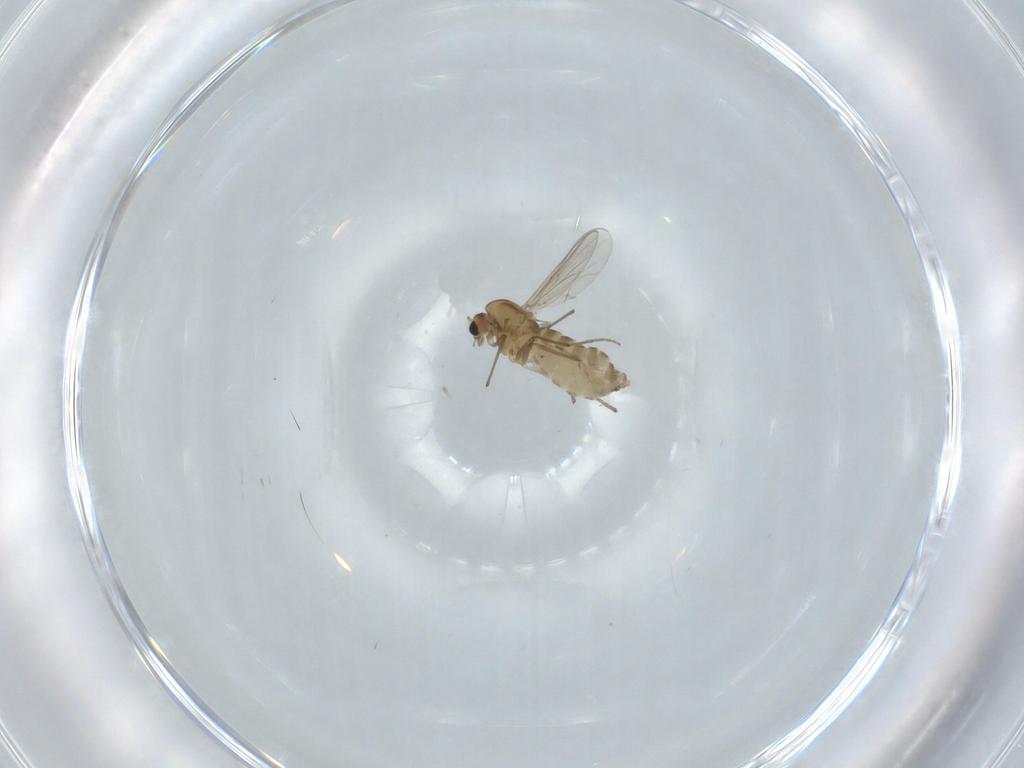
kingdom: Animalia
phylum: Arthropoda
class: Insecta
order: Diptera
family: Chironomidae
